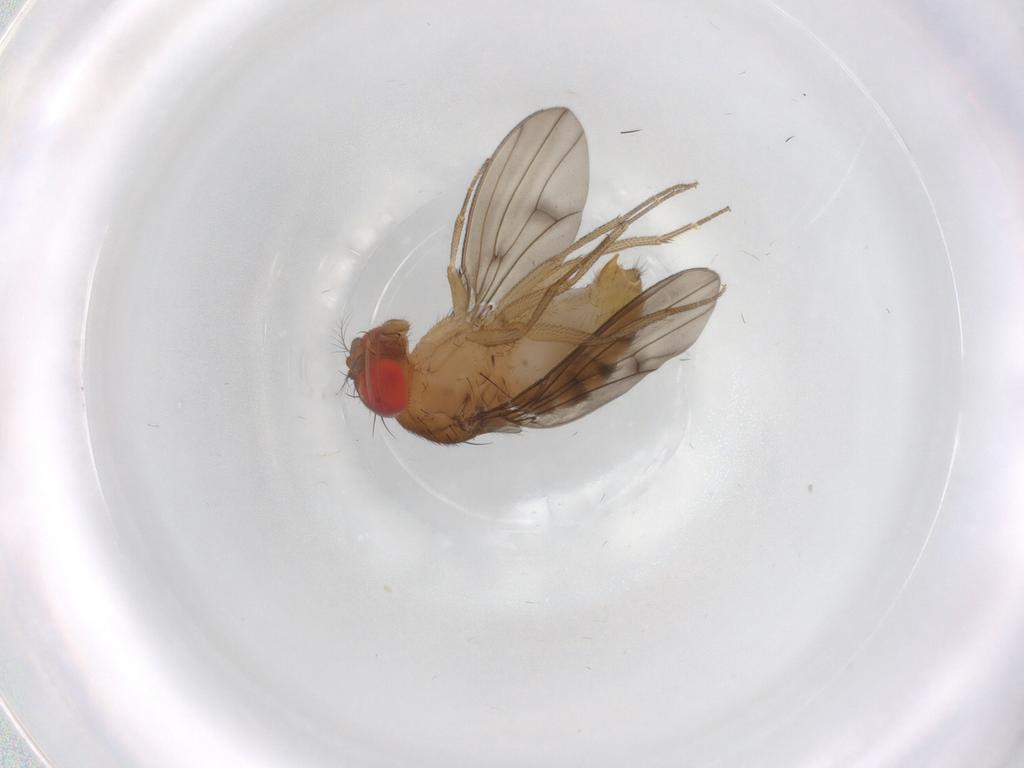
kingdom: Animalia
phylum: Arthropoda
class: Insecta
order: Diptera
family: Drosophilidae
